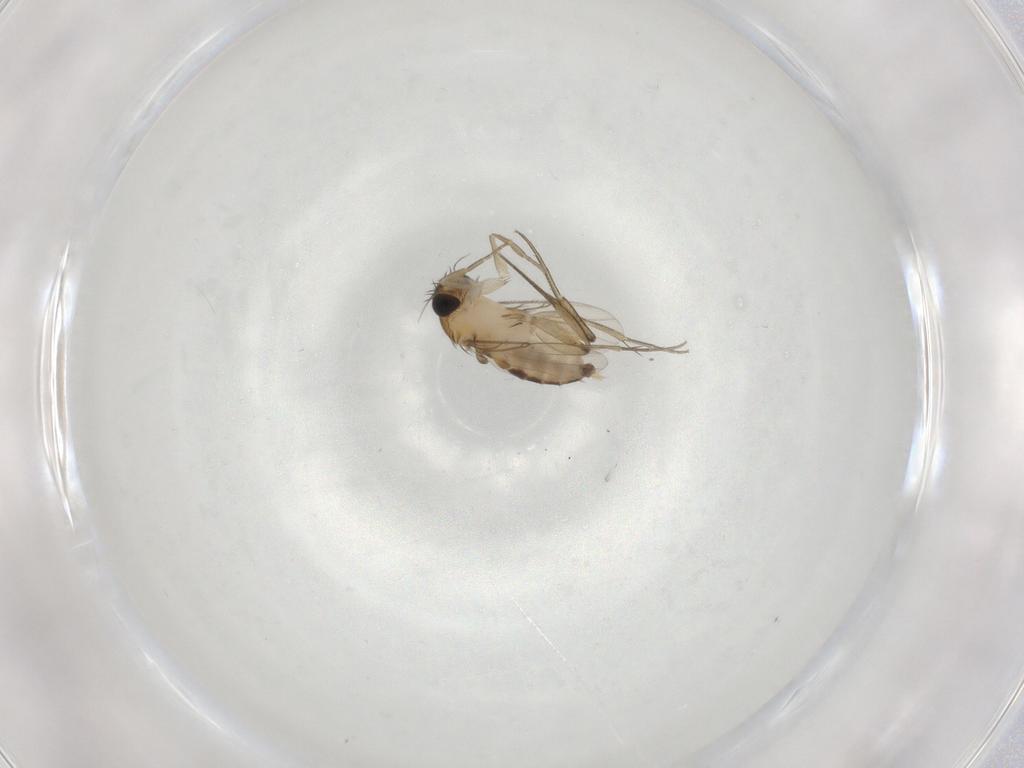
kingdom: Animalia
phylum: Arthropoda
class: Insecta
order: Diptera
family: Phoridae
